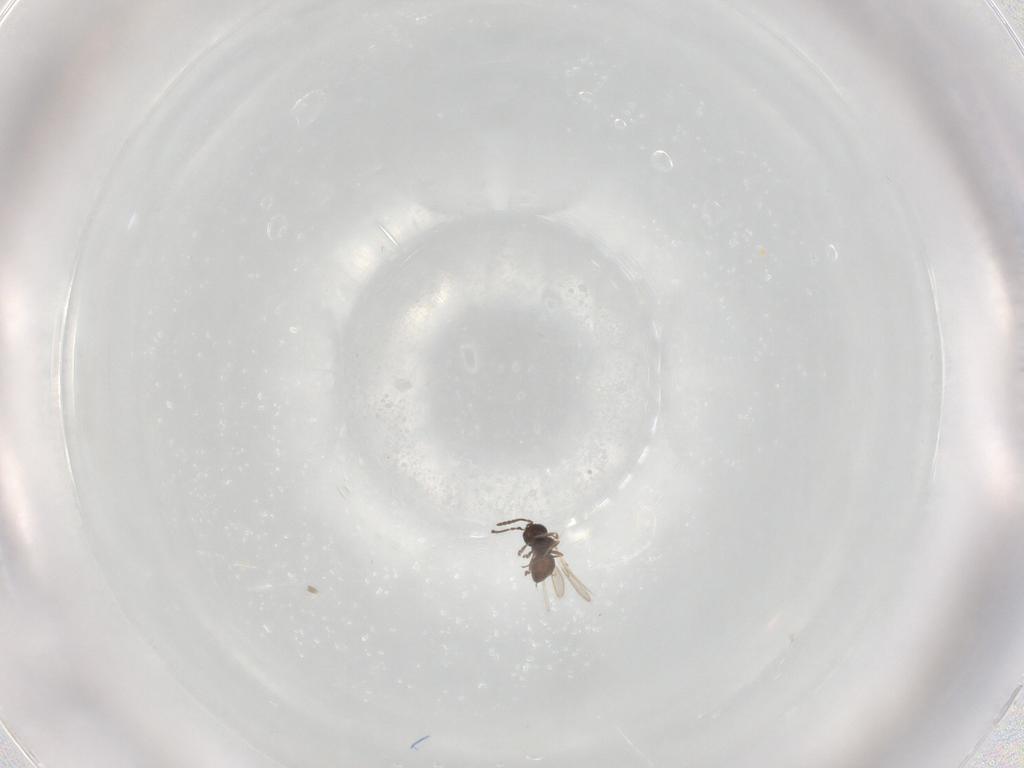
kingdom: Animalia
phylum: Arthropoda
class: Insecta
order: Hymenoptera
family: Scelionidae
